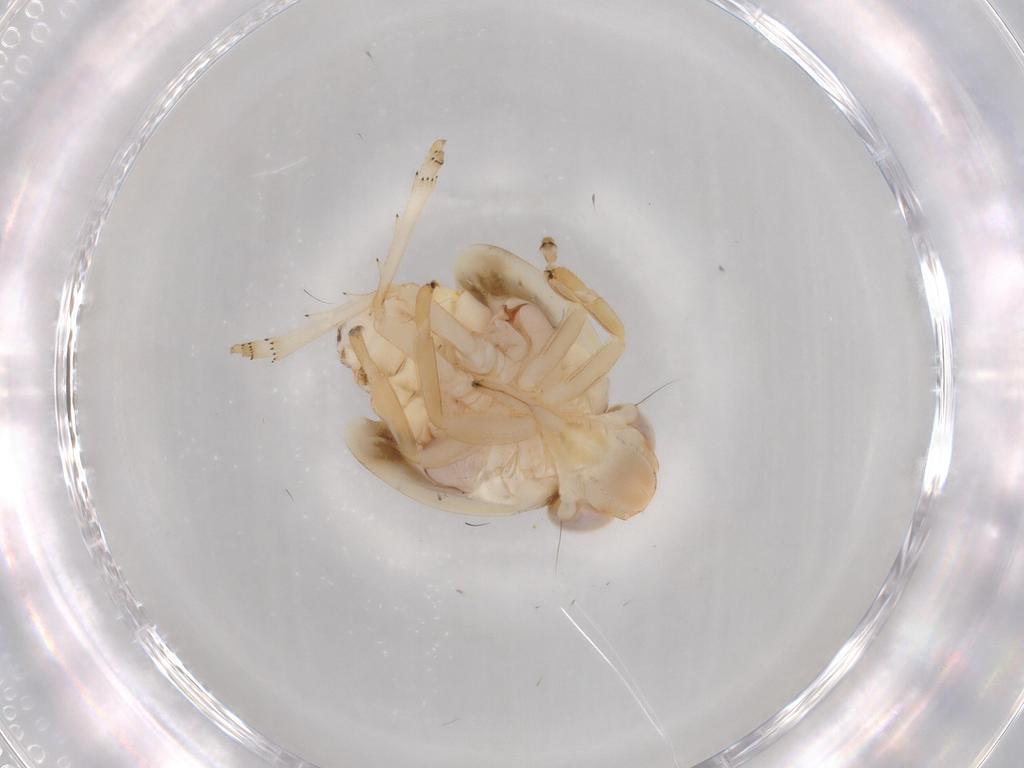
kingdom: Animalia
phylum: Arthropoda
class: Insecta
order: Hemiptera
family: Nogodinidae
